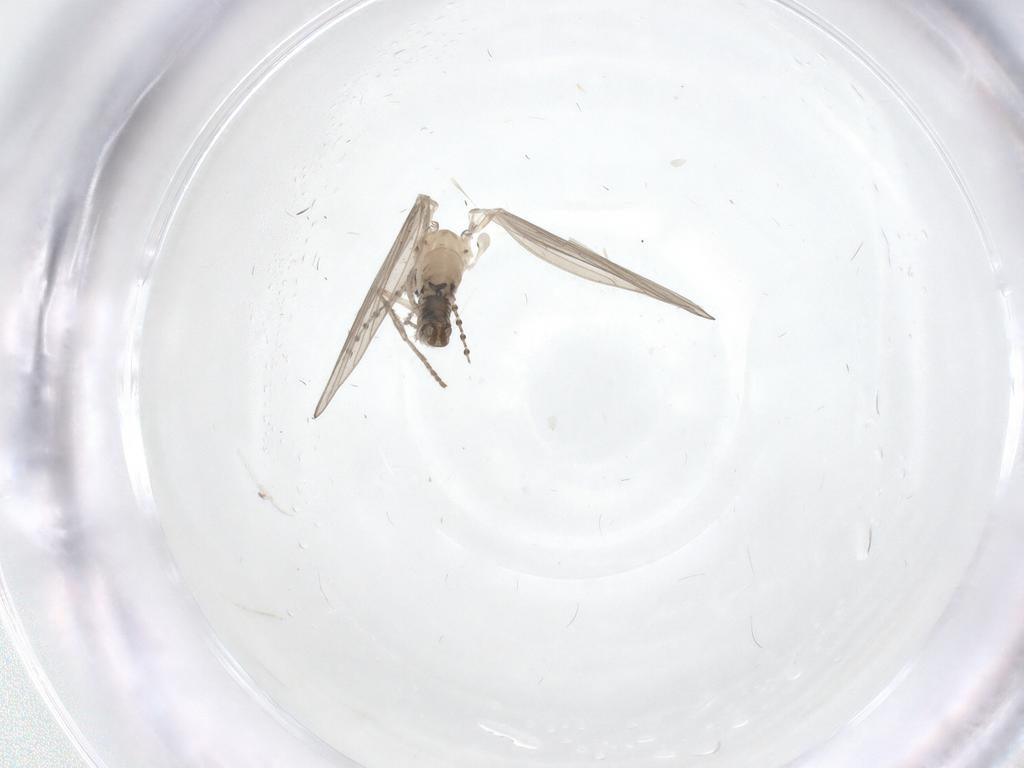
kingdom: Animalia
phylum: Arthropoda
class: Insecta
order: Diptera
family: Psychodidae
